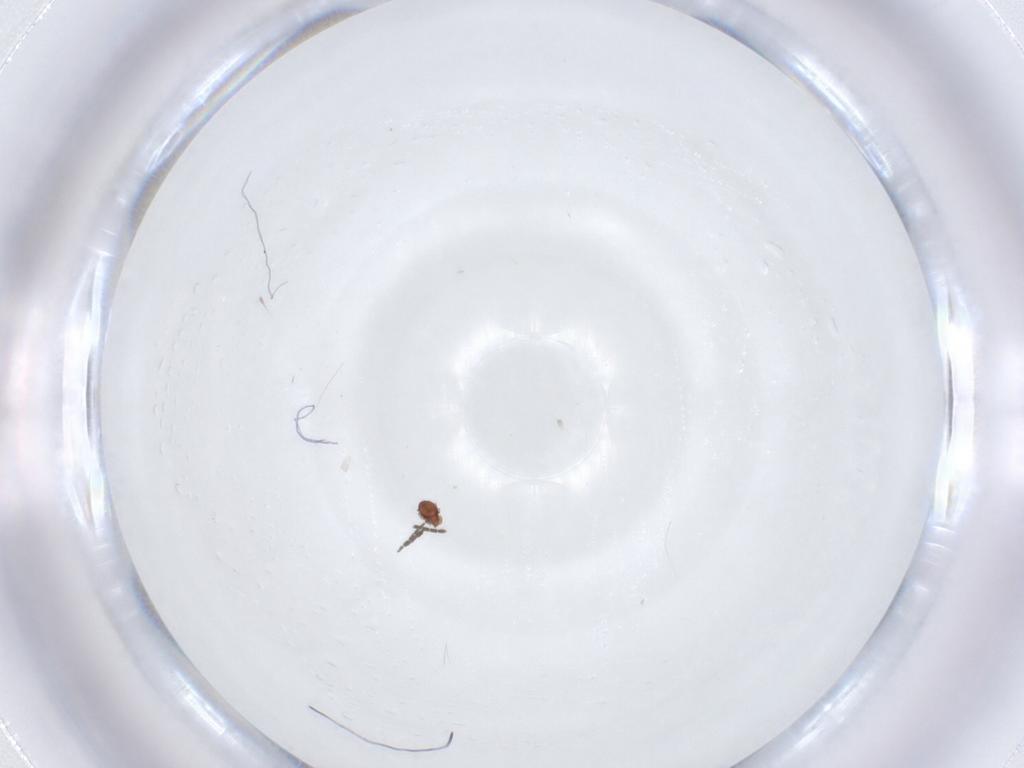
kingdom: Animalia
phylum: Arthropoda
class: Insecta
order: Diptera
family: Sciaridae
